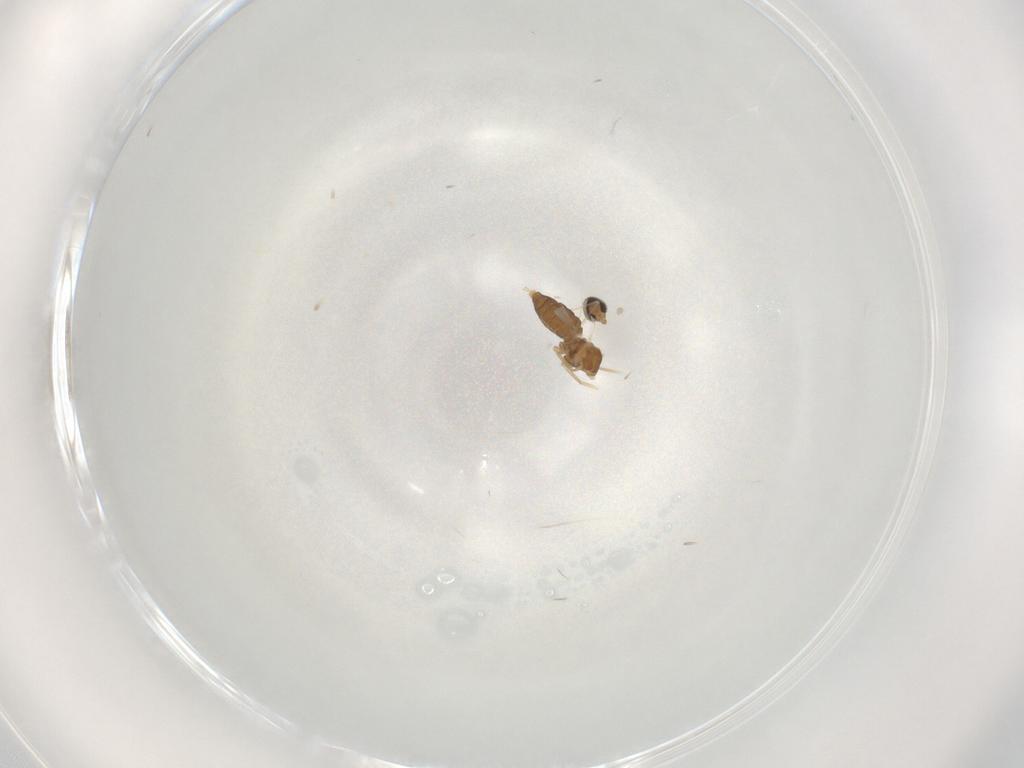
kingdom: Animalia
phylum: Arthropoda
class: Insecta
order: Diptera
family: Cecidomyiidae
